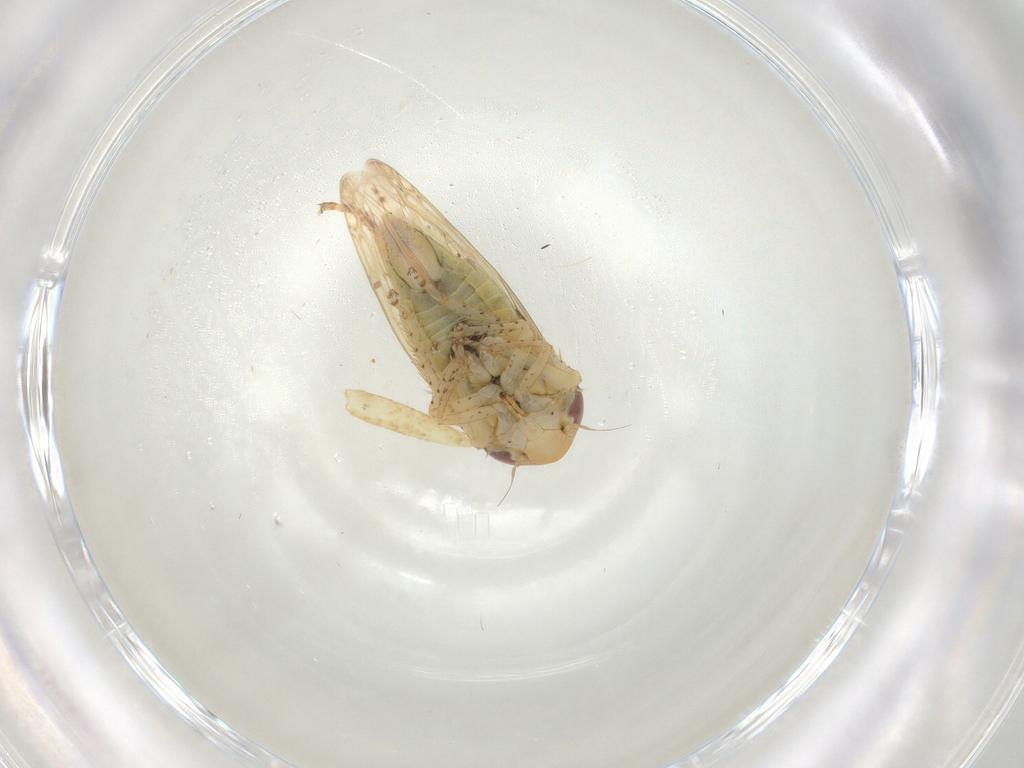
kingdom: Animalia
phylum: Arthropoda
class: Insecta
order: Hemiptera
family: Cicadellidae
